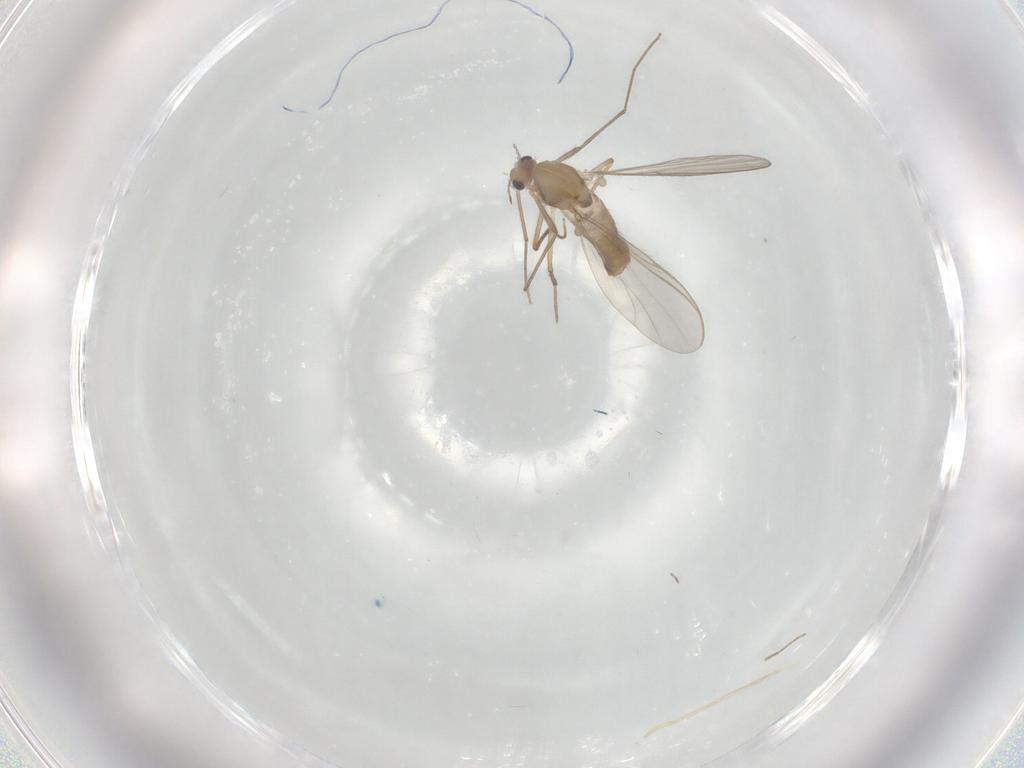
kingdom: Animalia
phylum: Arthropoda
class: Insecta
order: Diptera
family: Chironomidae
